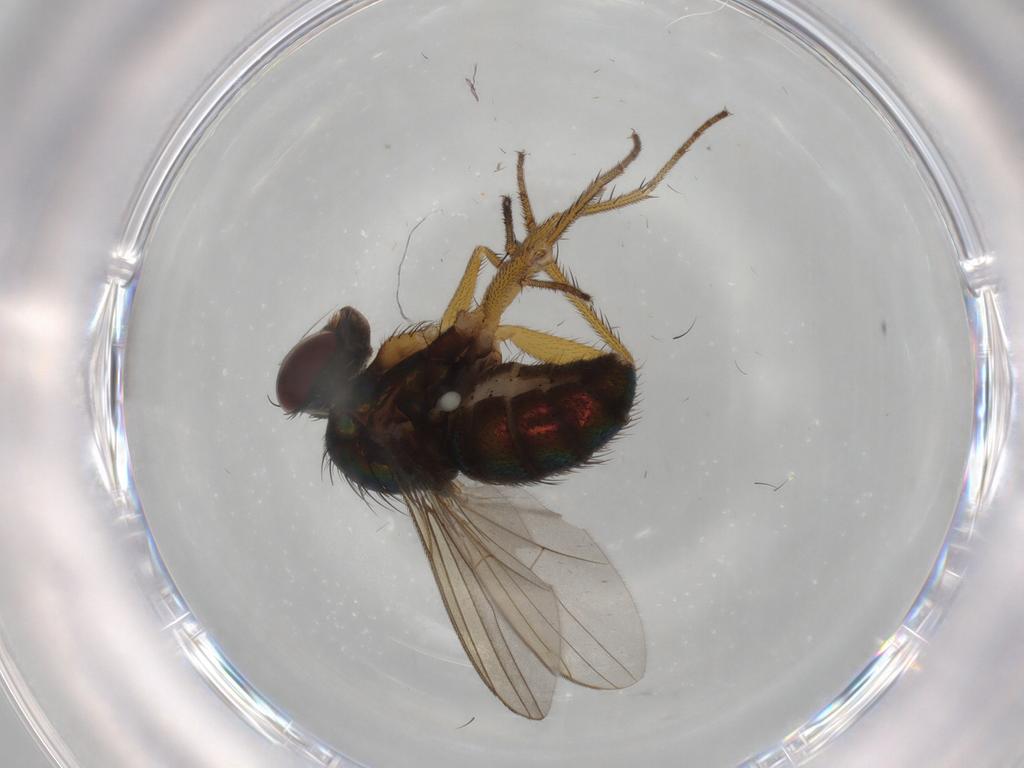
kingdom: Animalia
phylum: Arthropoda
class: Insecta
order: Diptera
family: Dolichopodidae
